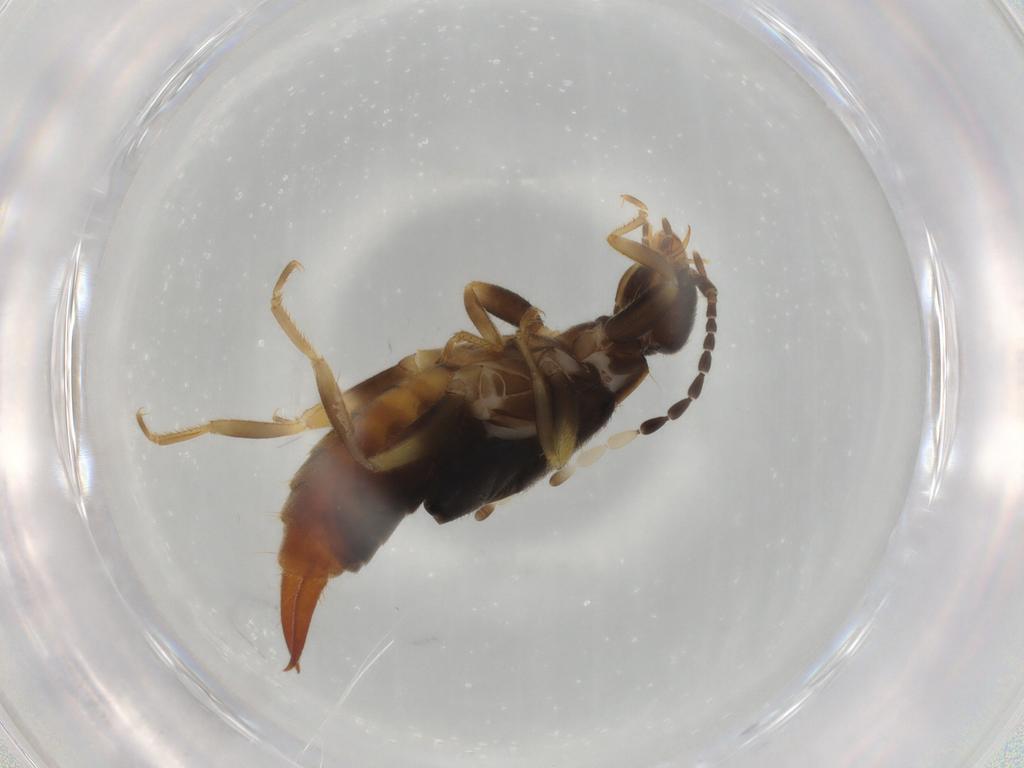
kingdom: Animalia
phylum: Arthropoda
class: Insecta
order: Dermaptera
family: Anisolabididae
